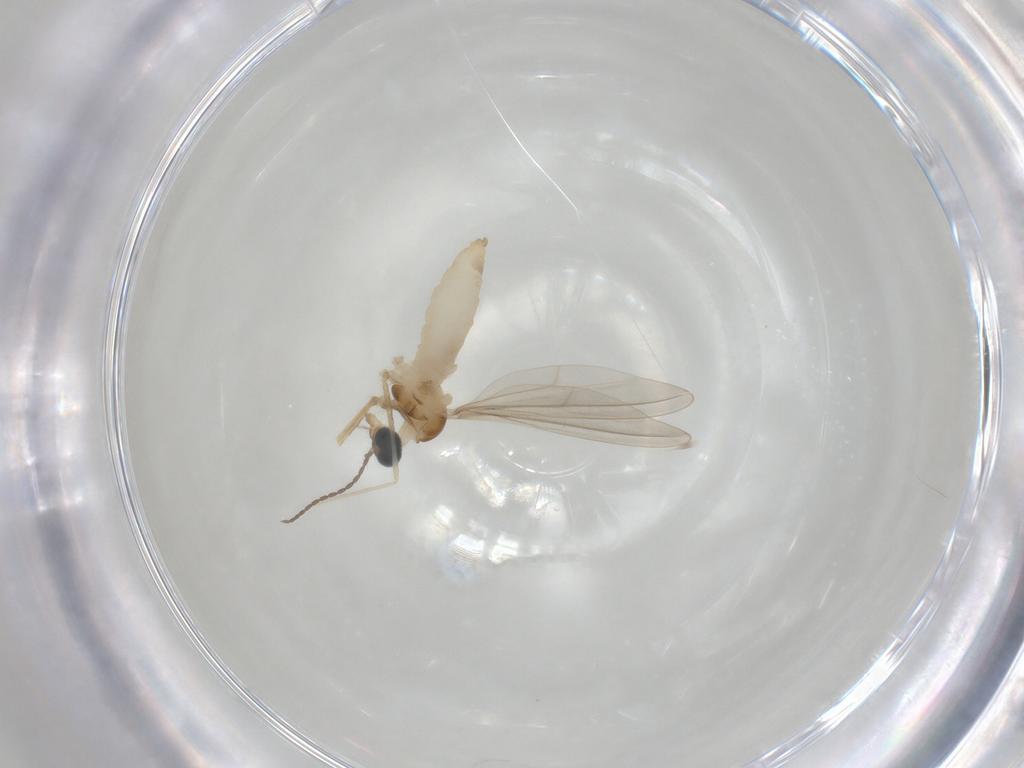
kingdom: Animalia
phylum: Arthropoda
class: Insecta
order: Diptera
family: Cecidomyiidae
